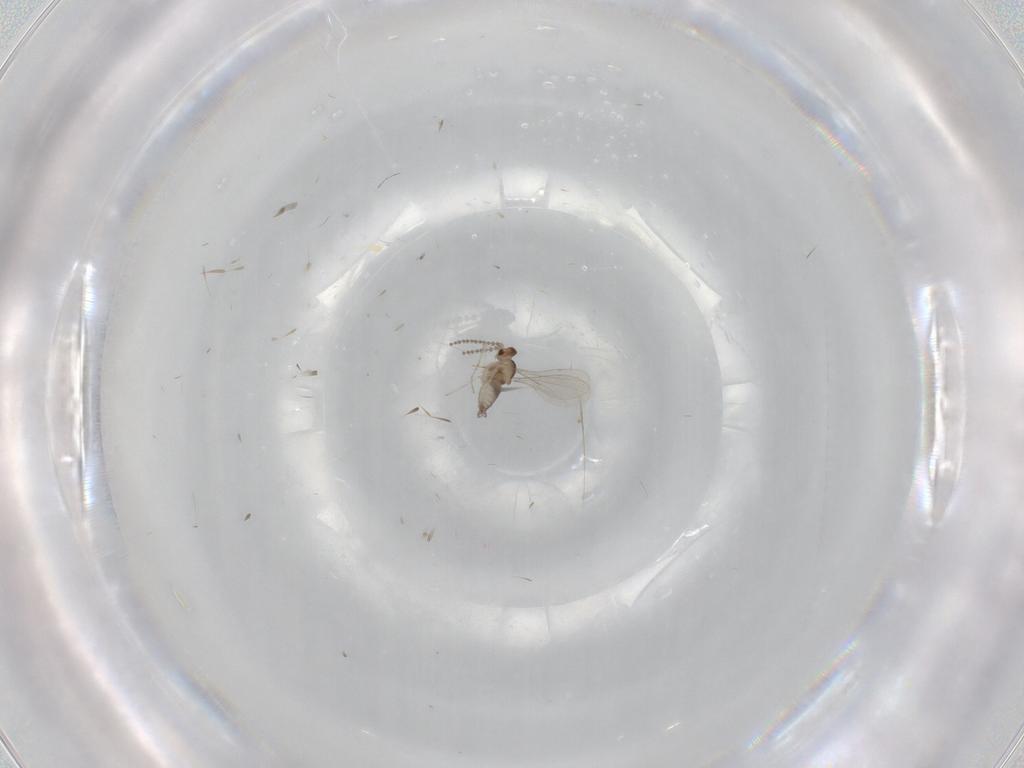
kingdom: Animalia
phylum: Arthropoda
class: Insecta
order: Diptera
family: Cecidomyiidae
